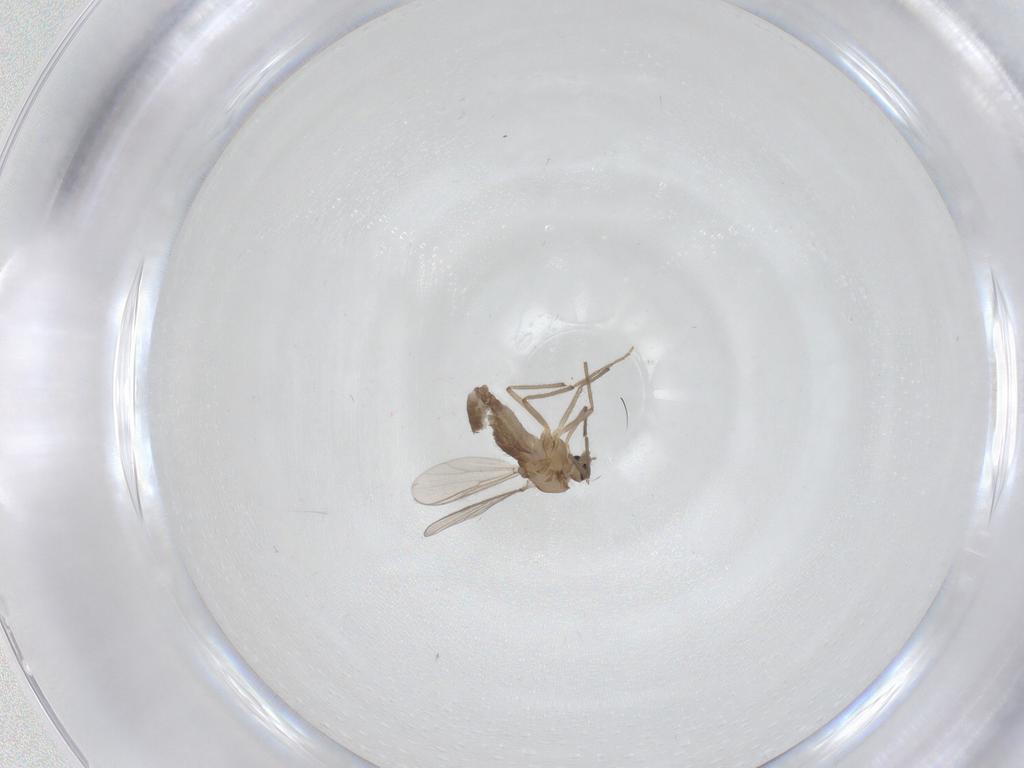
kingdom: Animalia
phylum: Arthropoda
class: Insecta
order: Diptera
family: Chironomidae
